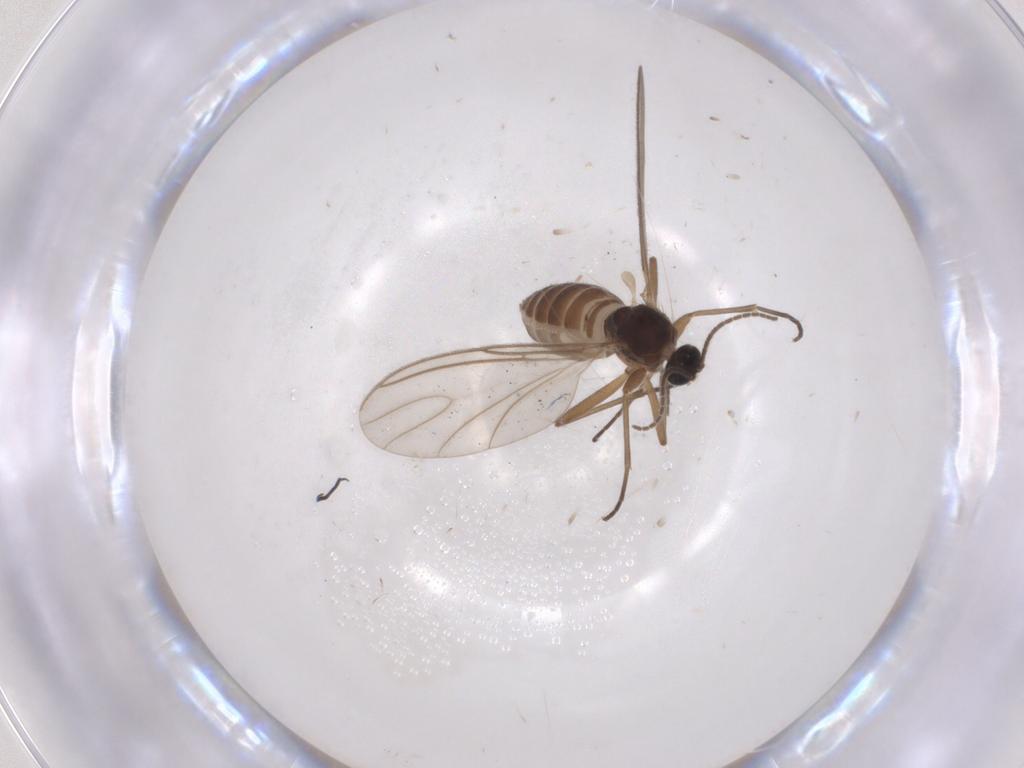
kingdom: Animalia
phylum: Arthropoda
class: Insecta
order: Diptera
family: Sciaridae
